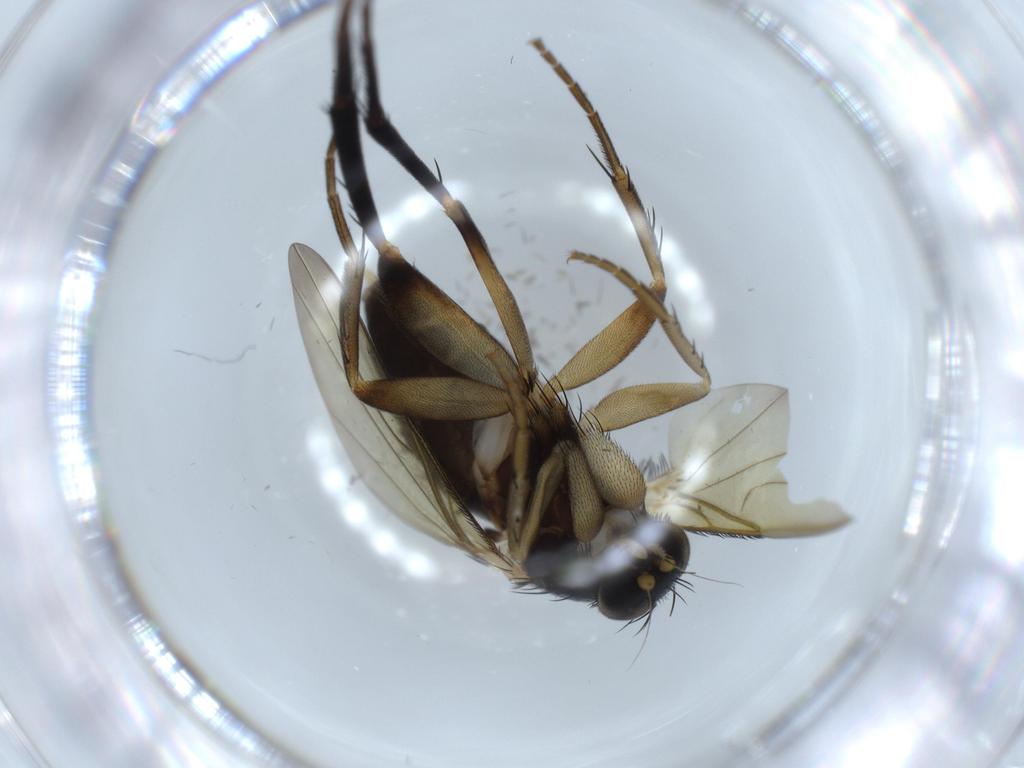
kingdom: Animalia
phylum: Arthropoda
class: Insecta
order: Diptera
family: Phoridae
